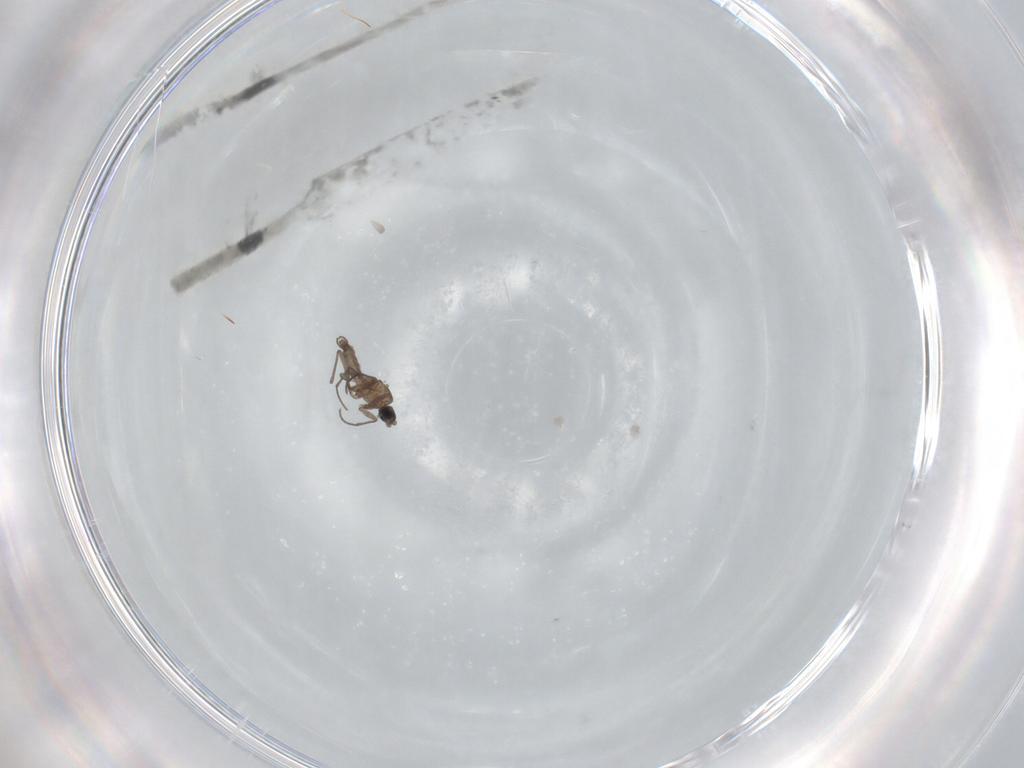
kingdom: Animalia
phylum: Arthropoda
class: Insecta
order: Diptera
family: Sciaridae
